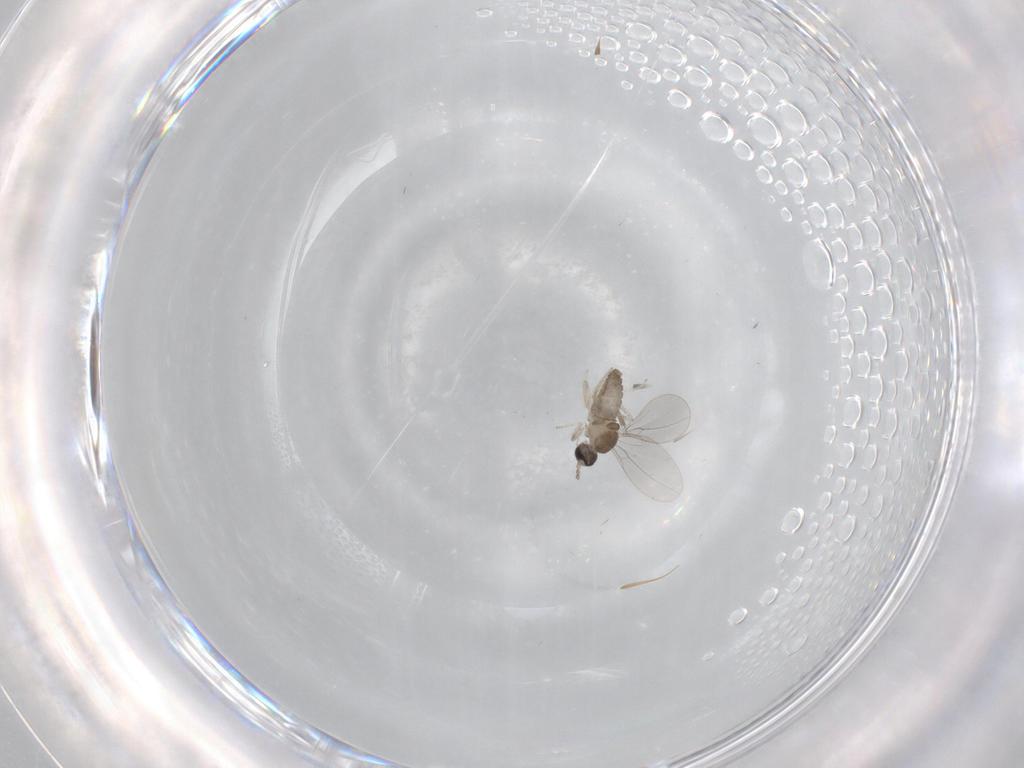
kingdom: Animalia
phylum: Arthropoda
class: Insecta
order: Diptera
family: Cecidomyiidae
